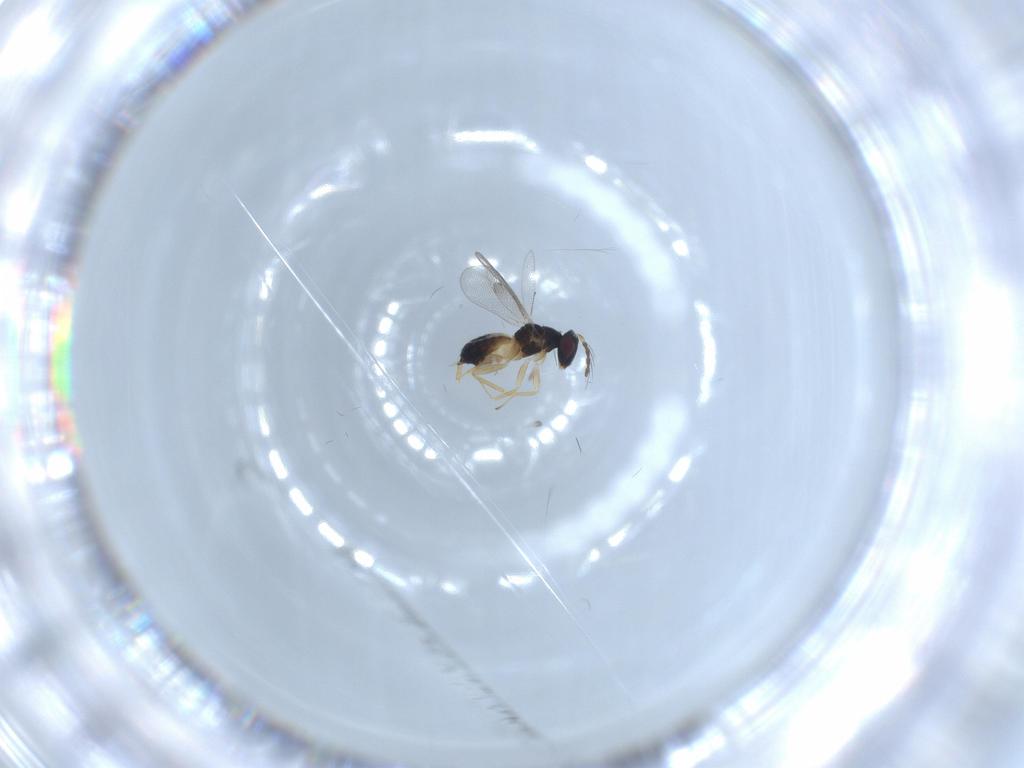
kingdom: Animalia
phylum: Arthropoda
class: Insecta
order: Hymenoptera
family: Eulophidae
